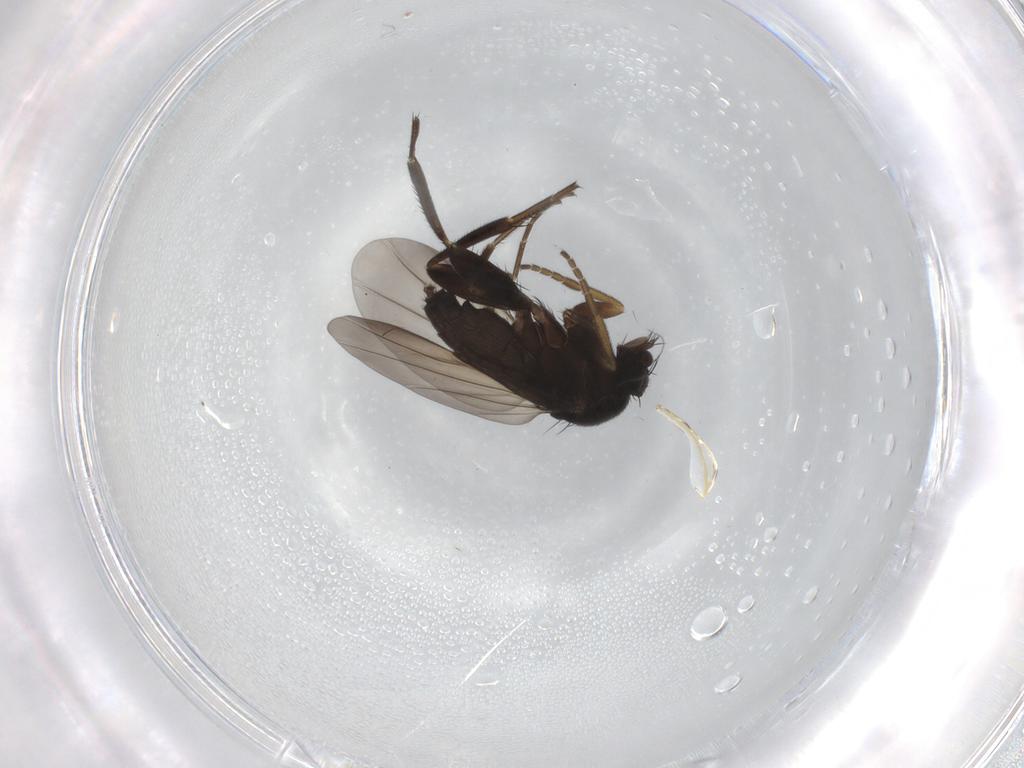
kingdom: Animalia
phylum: Arthropoda
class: Insecta
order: Diptera
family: Phoridae
